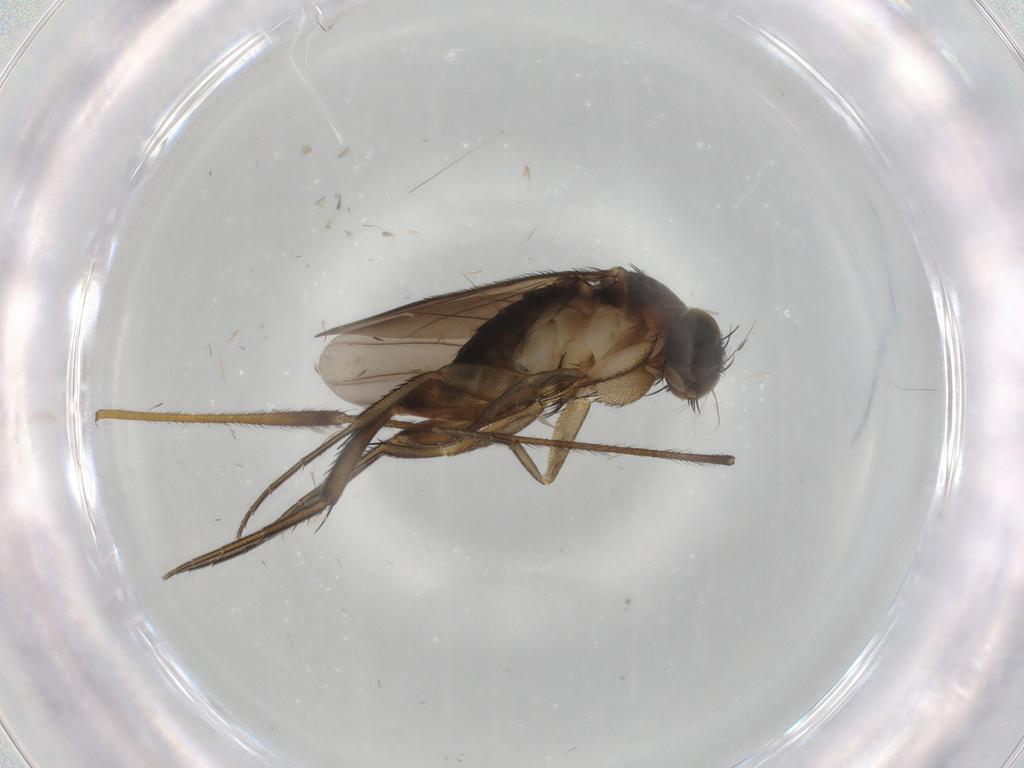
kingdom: Animalia
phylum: Arthropoda
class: Insecta
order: Diptera
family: Phoridae
